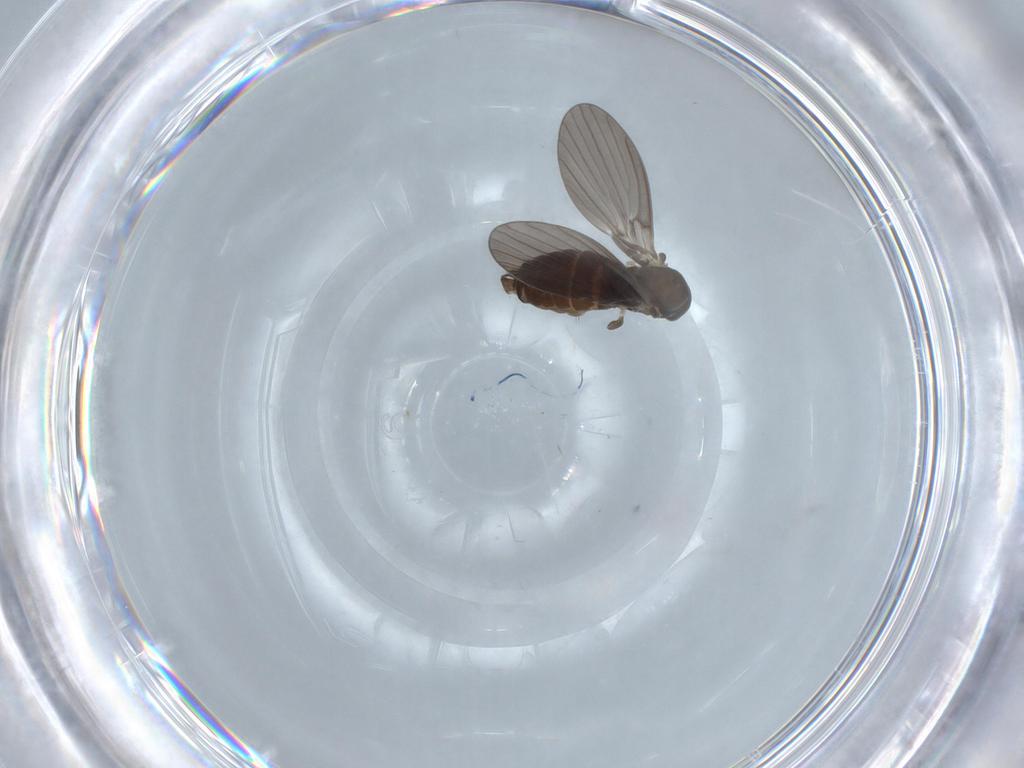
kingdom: Animalia
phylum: Arthropoda
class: Insecta
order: Diptera
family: Psychodidae
